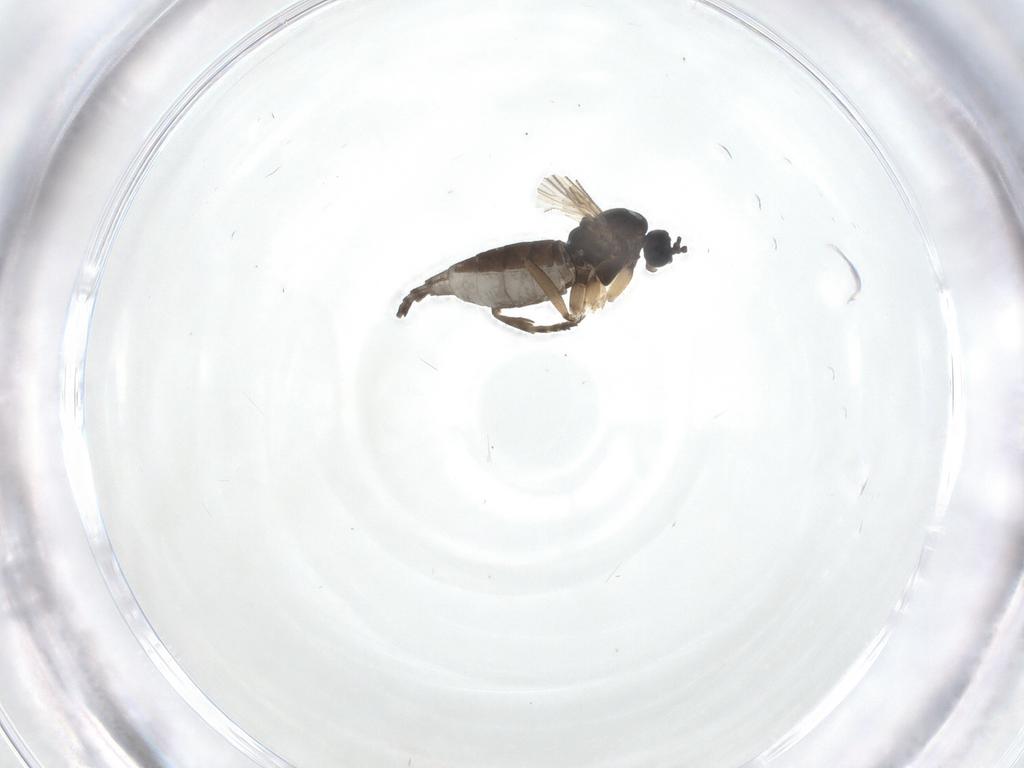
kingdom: Animalia
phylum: Arthropoda
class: Insecta
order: Diptera
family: Sciaridae
